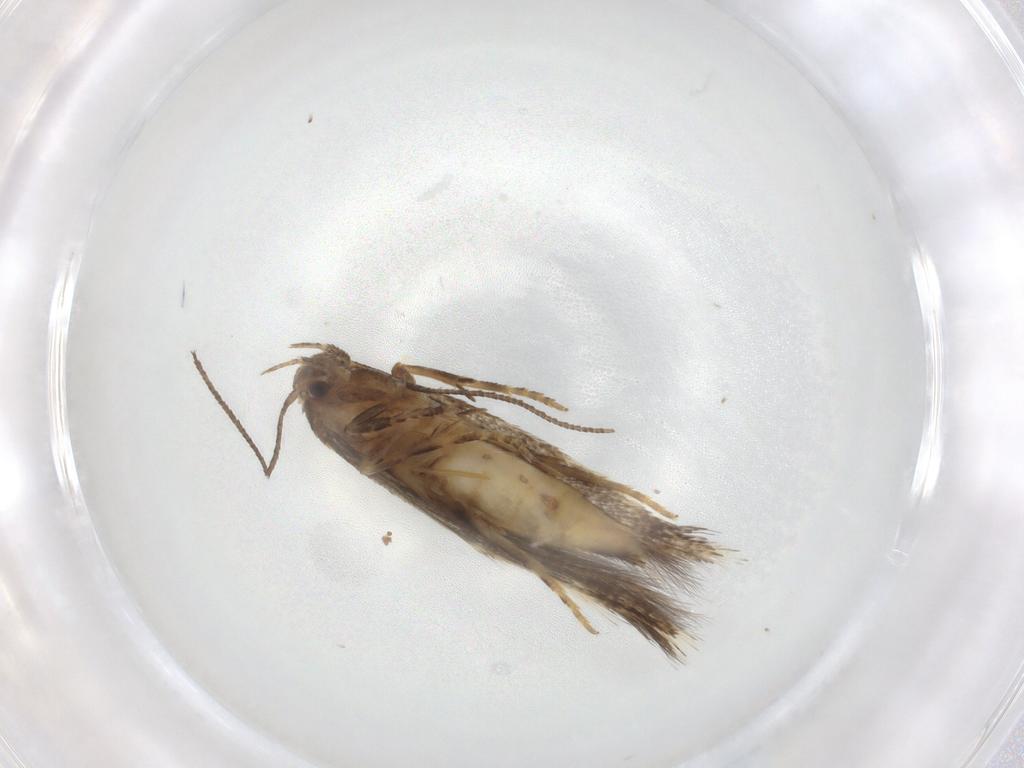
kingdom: Animalia
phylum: Arthropoda
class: Insecta
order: Lepidoptera
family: Elachistidae
